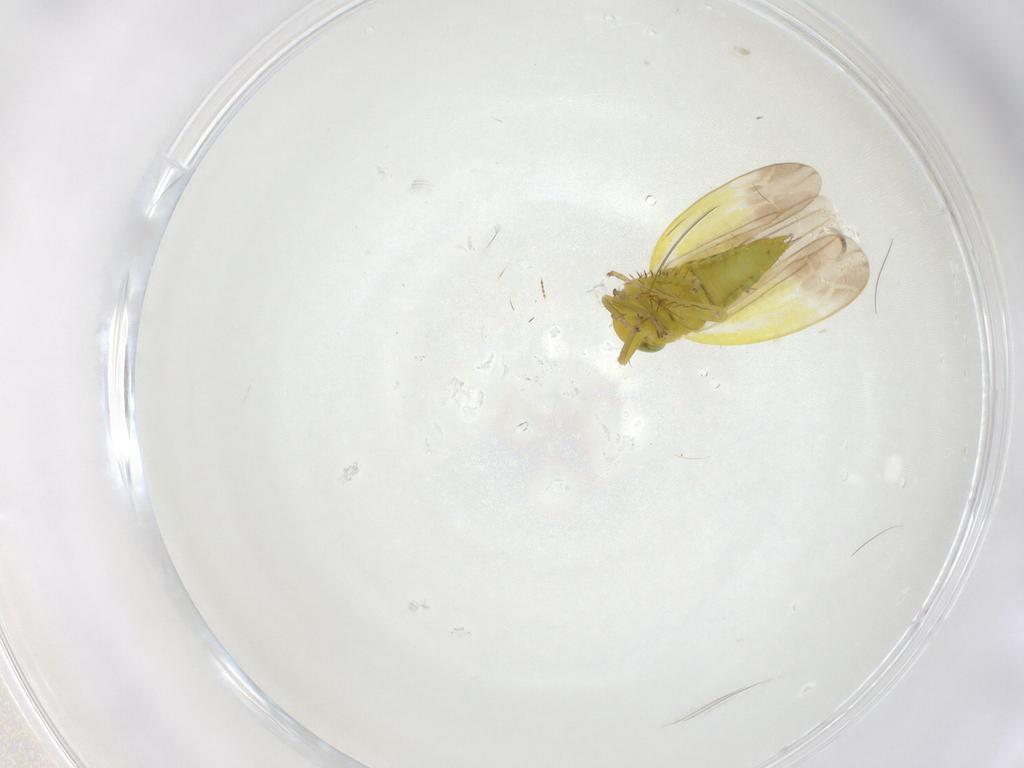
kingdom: Animalia
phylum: Arthropoda
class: Insecta
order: Hemiptera
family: Cicadellidae
